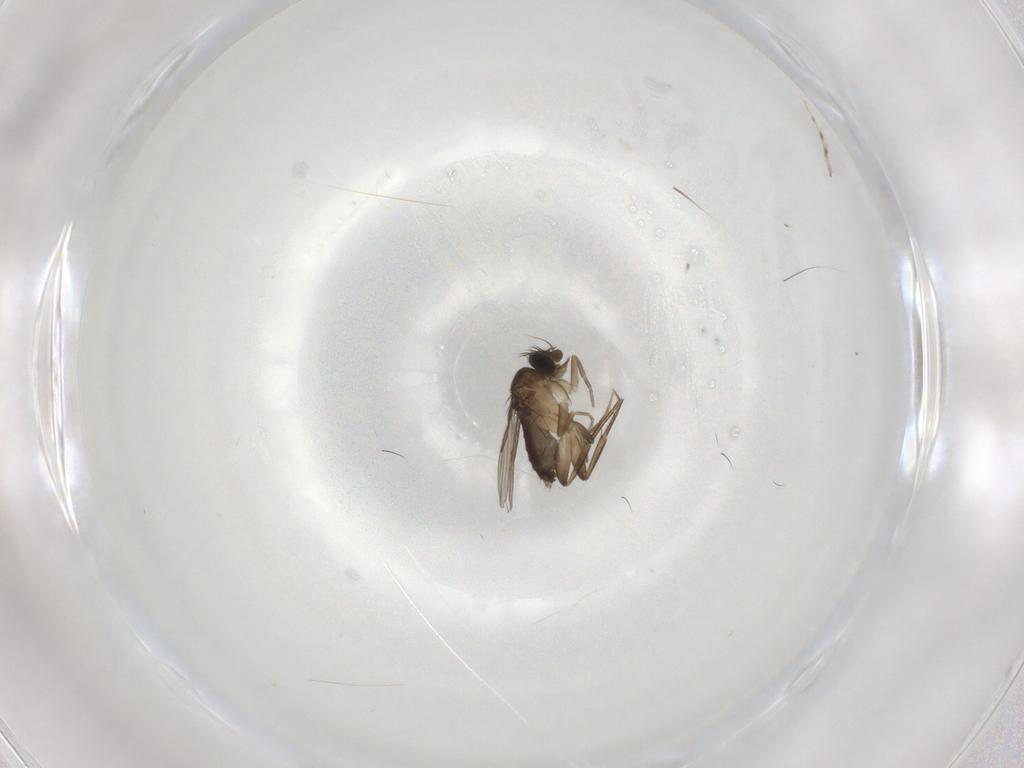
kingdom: Animalia
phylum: Arthropoda
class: Insecta
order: Diptera
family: Phoridae
